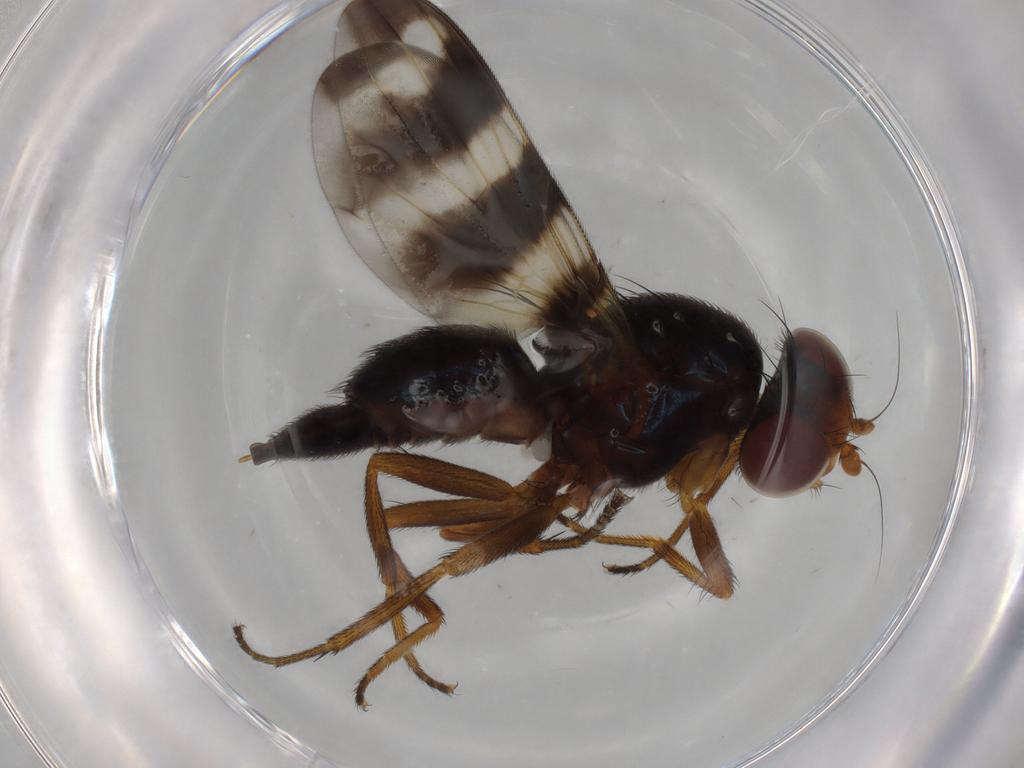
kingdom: Animalia
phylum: Arthropoda
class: Insecta
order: Diptera
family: Ulidiidae
